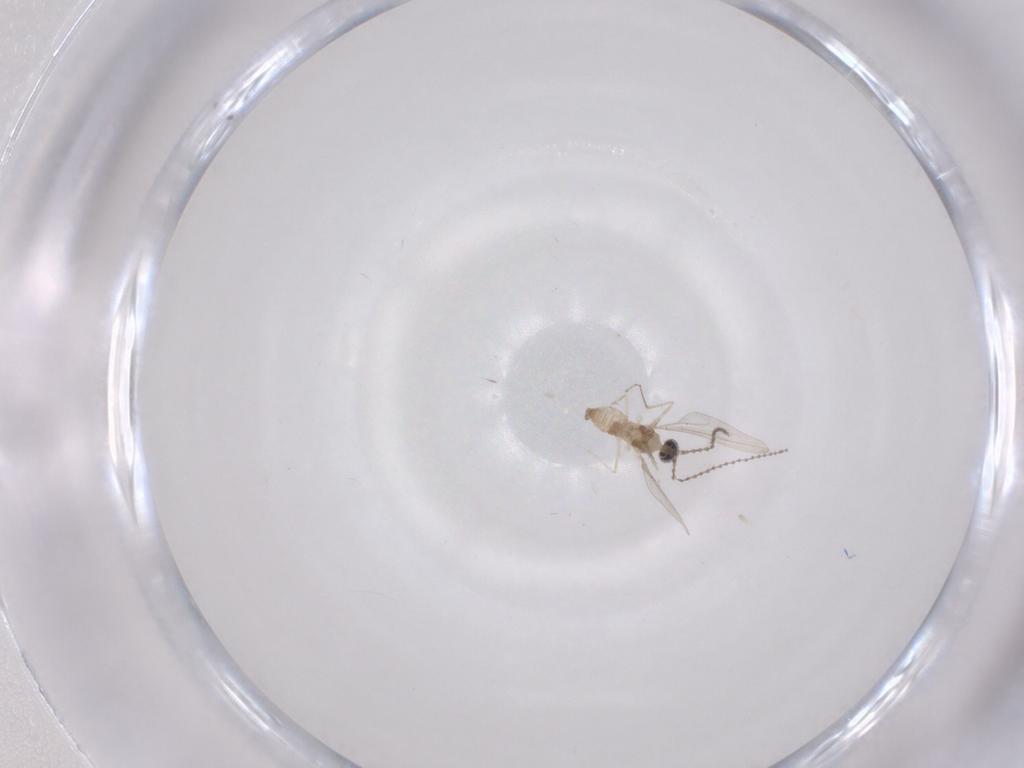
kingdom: Animalia
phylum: Arthropoda
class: Insecta
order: Diptera
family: Cecidomyiidae
